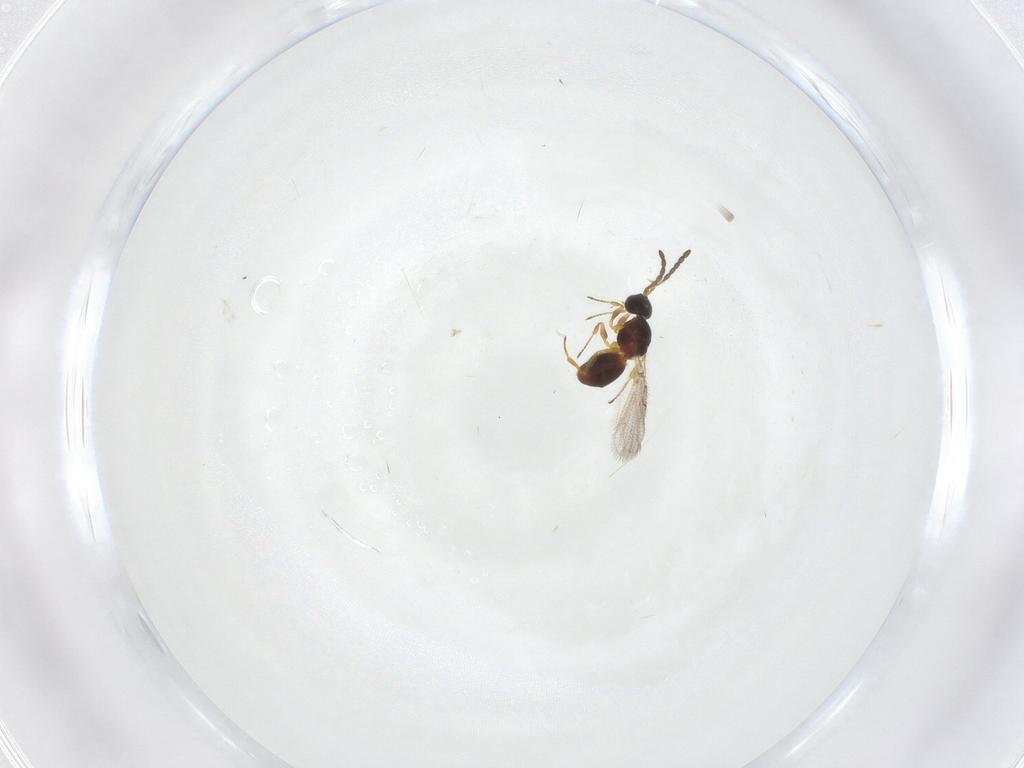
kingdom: Animalia
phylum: Arthropoda
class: Insecta
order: Hymenoptera
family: Figitidae
